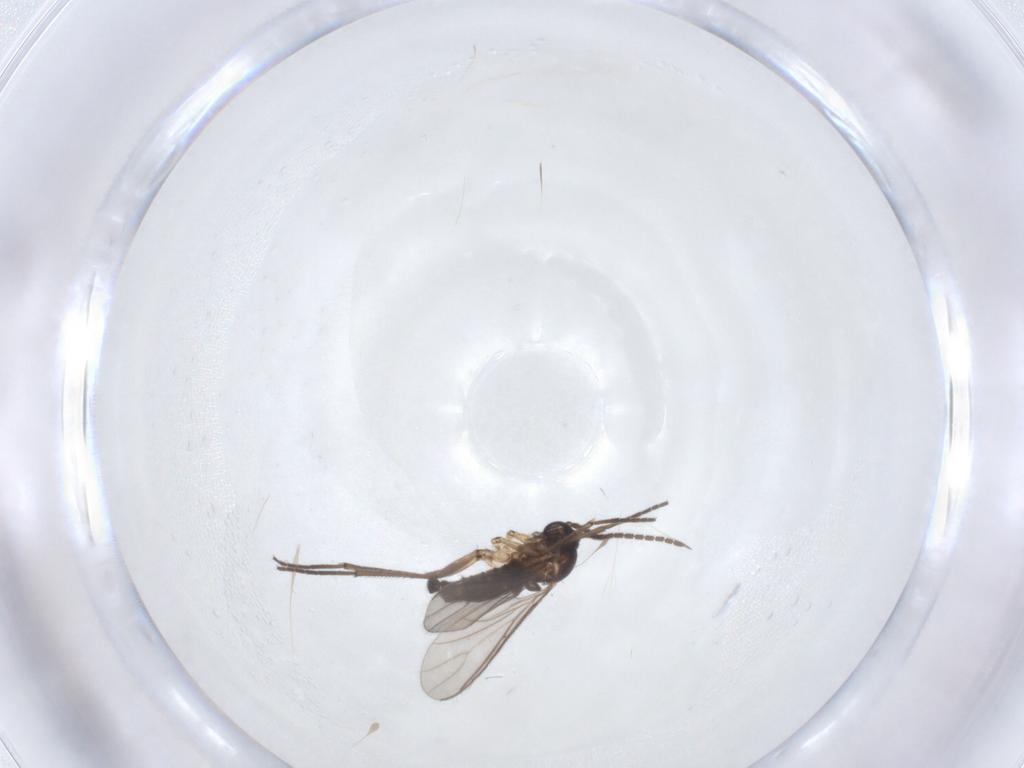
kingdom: Animalia
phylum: Arthropoda
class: Insecta
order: Diptera
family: Sciaridae
